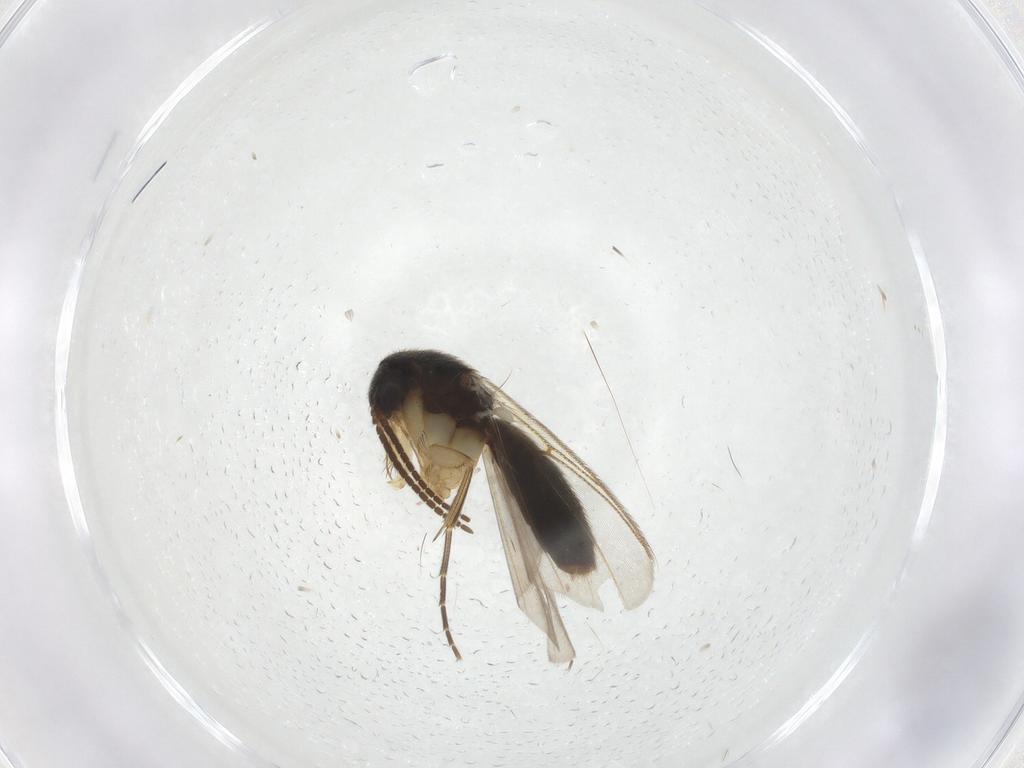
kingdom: Animalia
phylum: Arthropoda
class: Insecta
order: Diptera
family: Mycetophilidae
